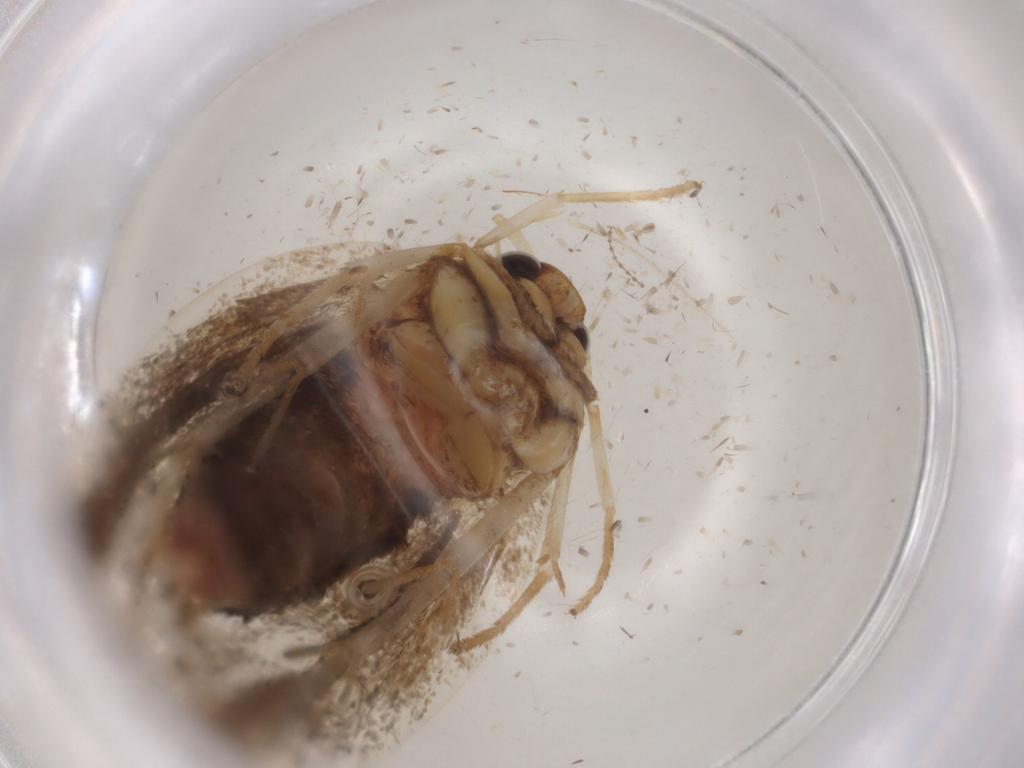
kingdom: Animalia
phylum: Arthropoda
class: Insecta
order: Lepidoptera
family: Lecithoceridae
